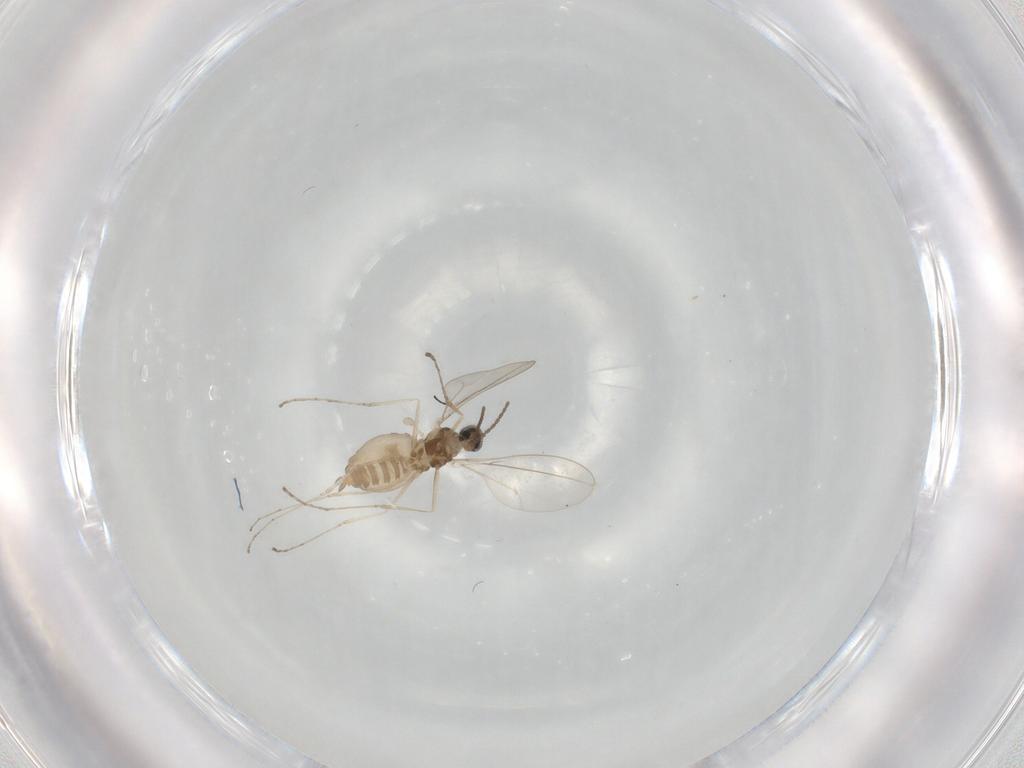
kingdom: Animalia
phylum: Arthropoda
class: Insecta
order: Diptera
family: Cecidomyiidae
